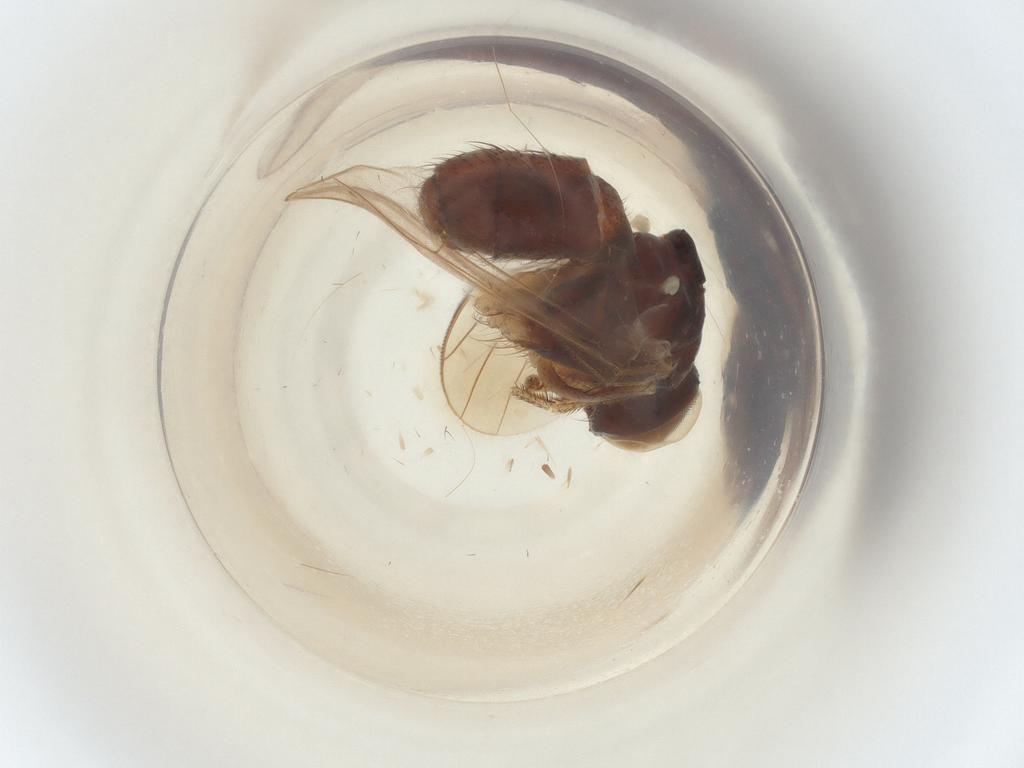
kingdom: Animalia
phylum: Arthropoda
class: Insecta
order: Diptera
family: Muscidae
